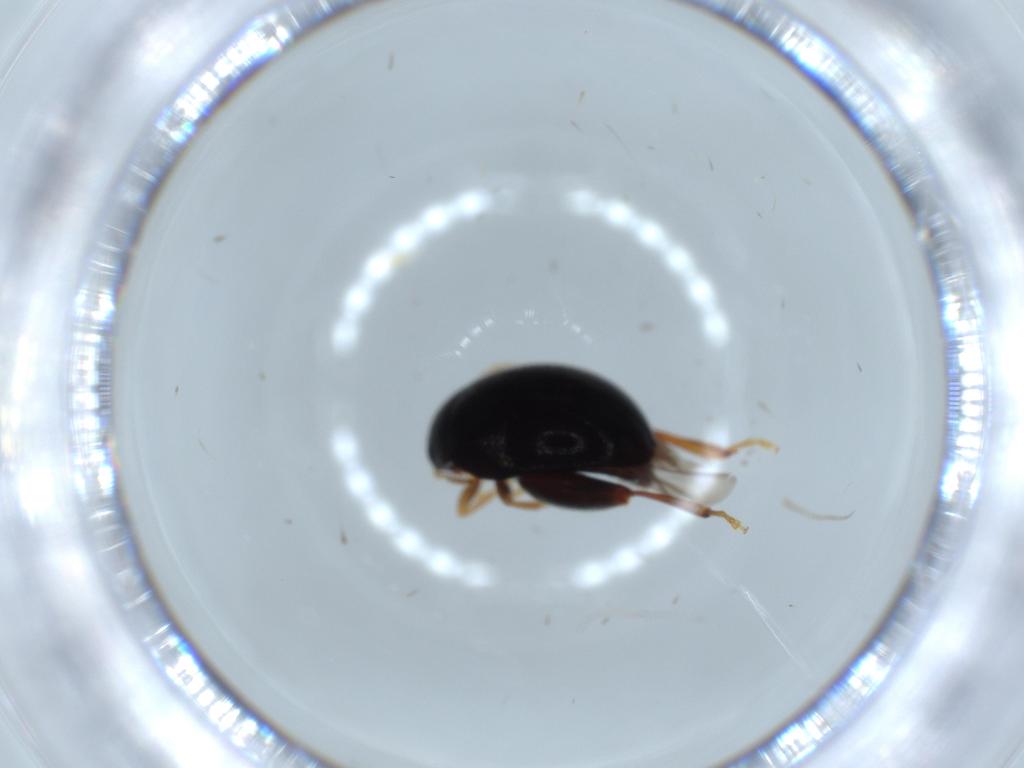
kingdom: Animalia
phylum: Arthropoda
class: Insecta
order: Coleoptera
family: Chrysomelidae
